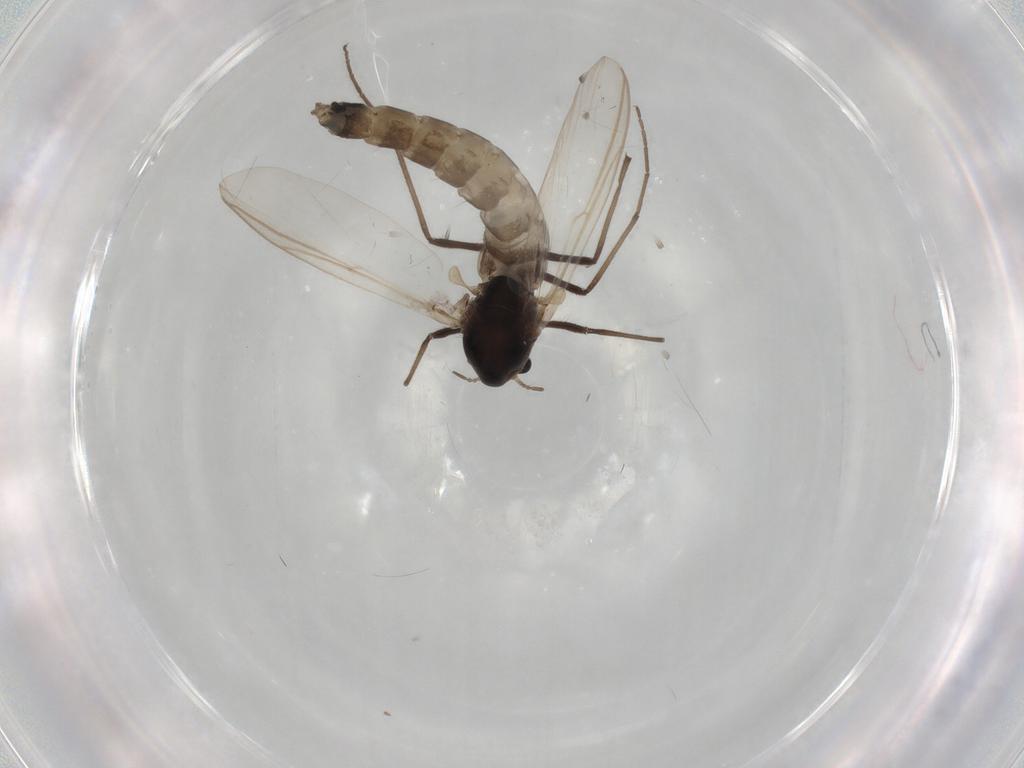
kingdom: Animalia
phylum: Arthropoda
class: Insecta
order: Diptera
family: Chironomidae
